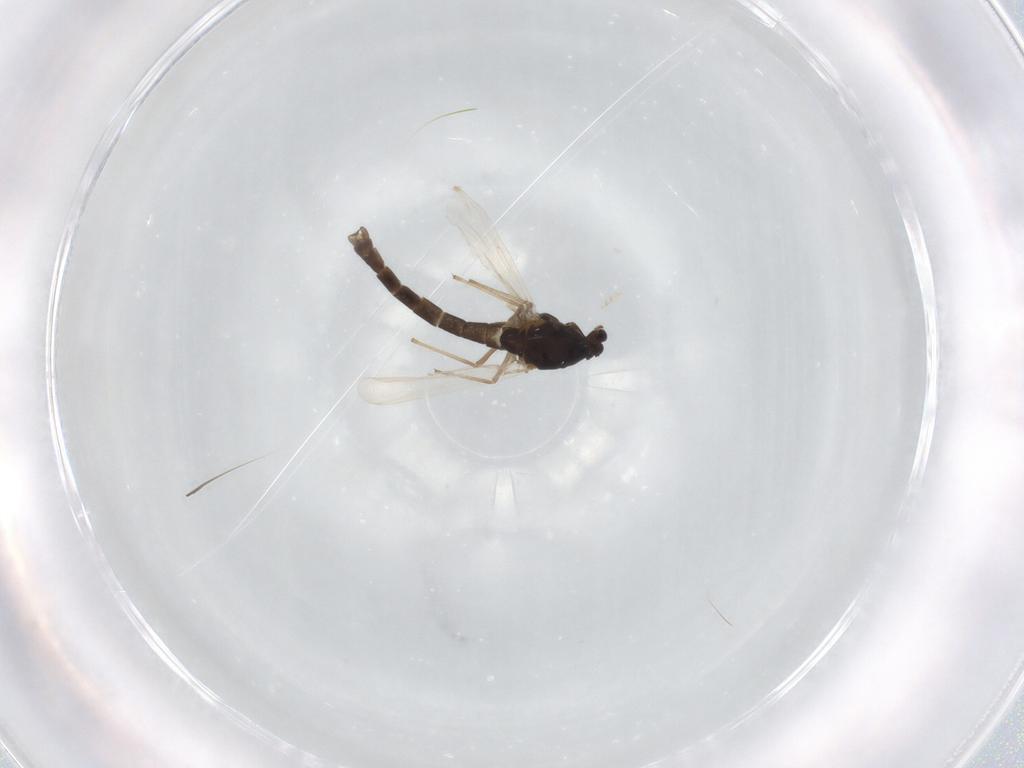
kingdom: Animalia
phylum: Arthropoda
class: Insecta
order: Diptera
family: Chironomidae
